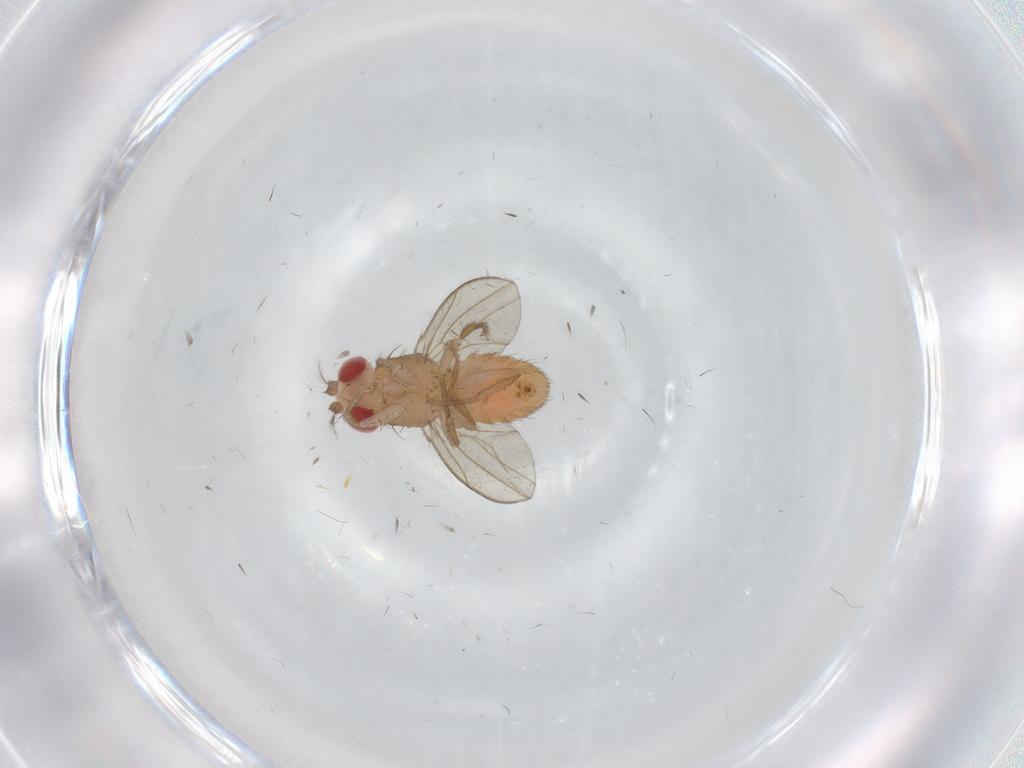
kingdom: Animalia
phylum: Arthropoda
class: Insecta
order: Diptera
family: Drosophilidae
